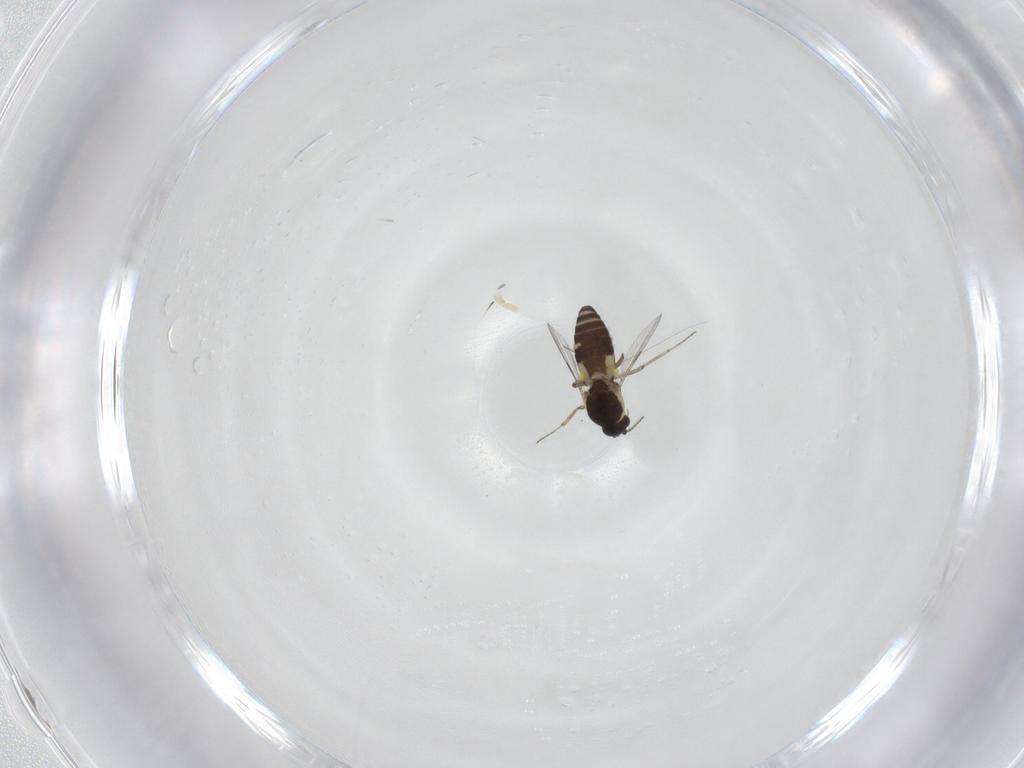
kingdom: Animalia
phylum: Arthropoda
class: Insecta
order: Diptera
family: Ceratopogonidae
